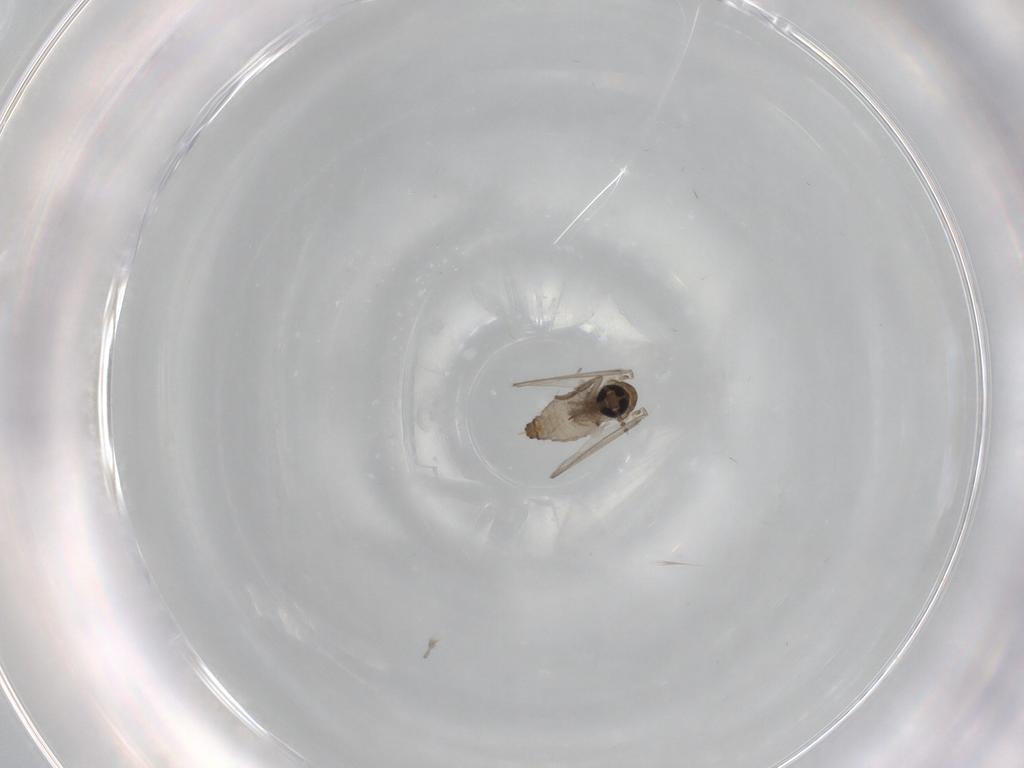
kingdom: Animalia
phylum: Arthropoda
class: Insecta
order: Diptera
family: Psychodidae
